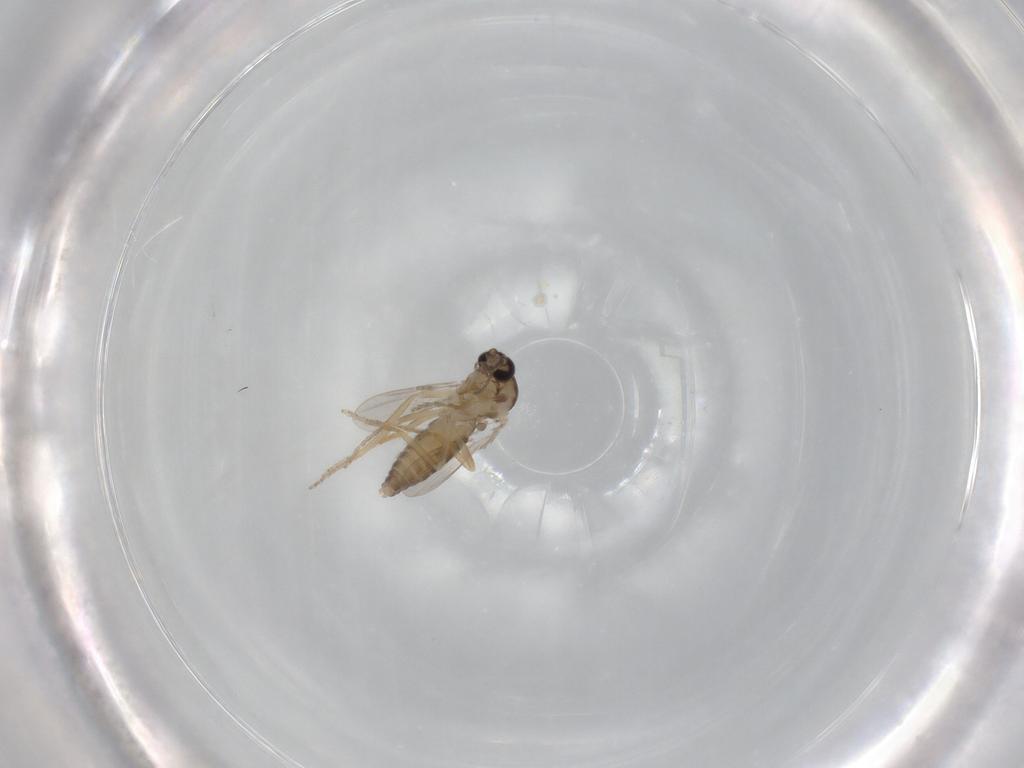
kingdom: Animalia
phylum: Arthropoda
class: Insecta
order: Diptera
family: Ceratopogonidae
